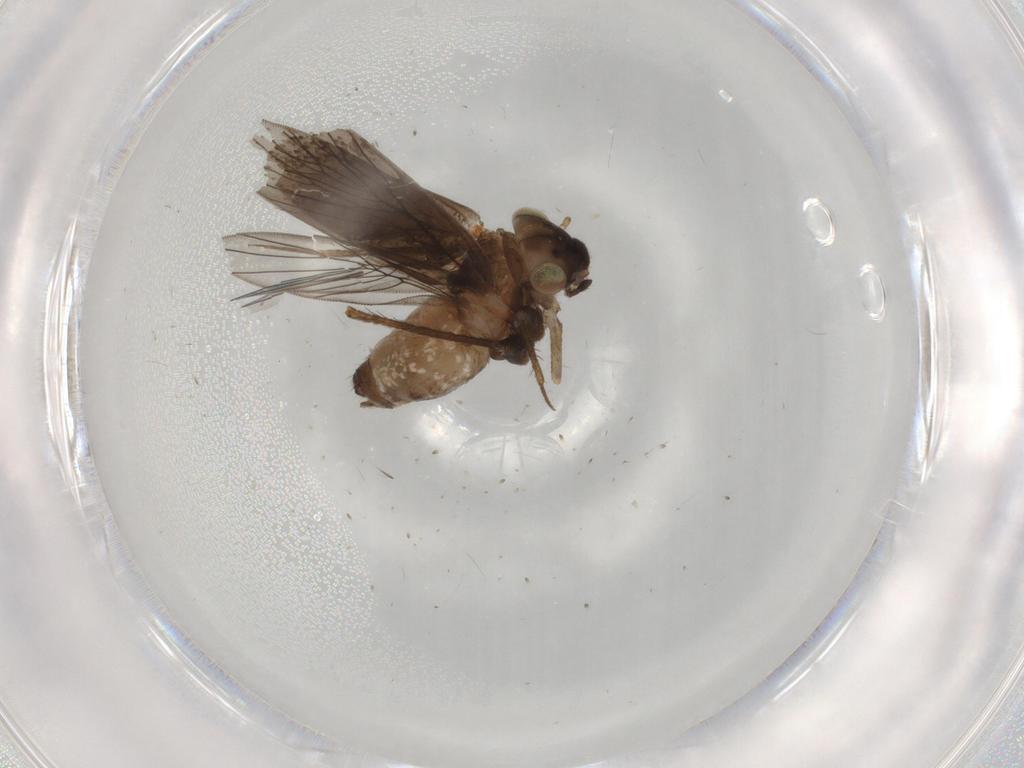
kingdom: Animalia
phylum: Arthropoda
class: Insecta
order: Psocodea
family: Lepidopsocidae
